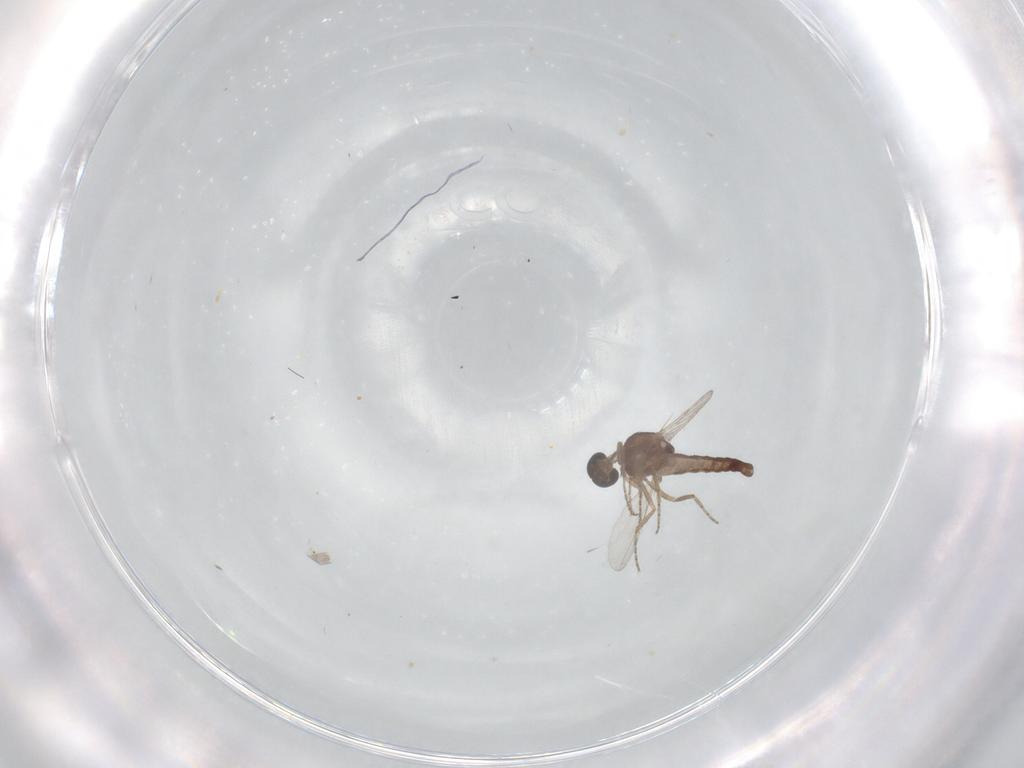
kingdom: Animalia
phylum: Arthropoda
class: Insecta
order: Diptera
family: Ceratopogonidae
